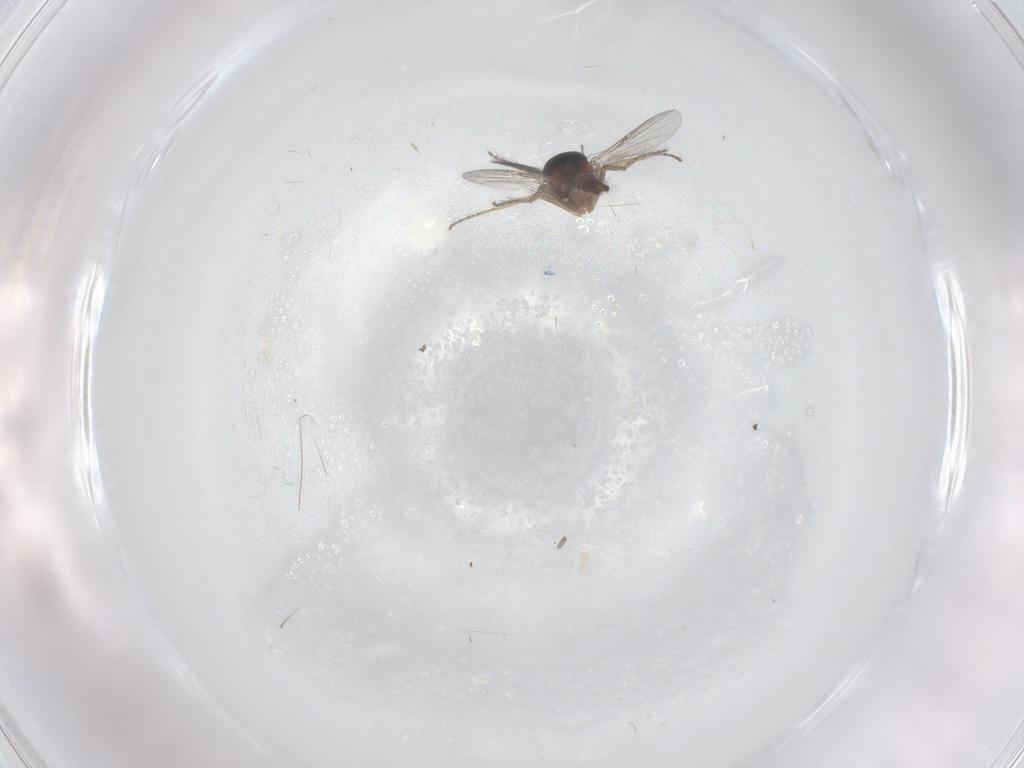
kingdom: Animalia
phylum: Arthropoda
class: Insecta
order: Diptera
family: Ceratopogonidae
